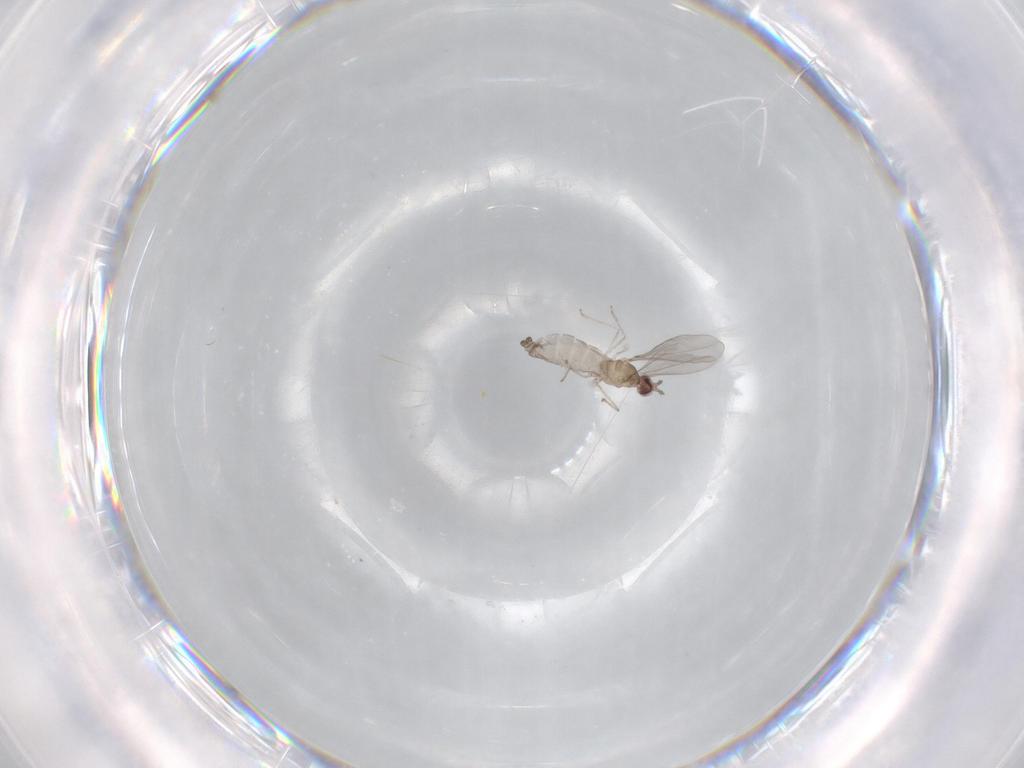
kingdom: Animalia
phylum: Arthropoda
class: Insecta
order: Diptera
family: Cecidomyiidae
